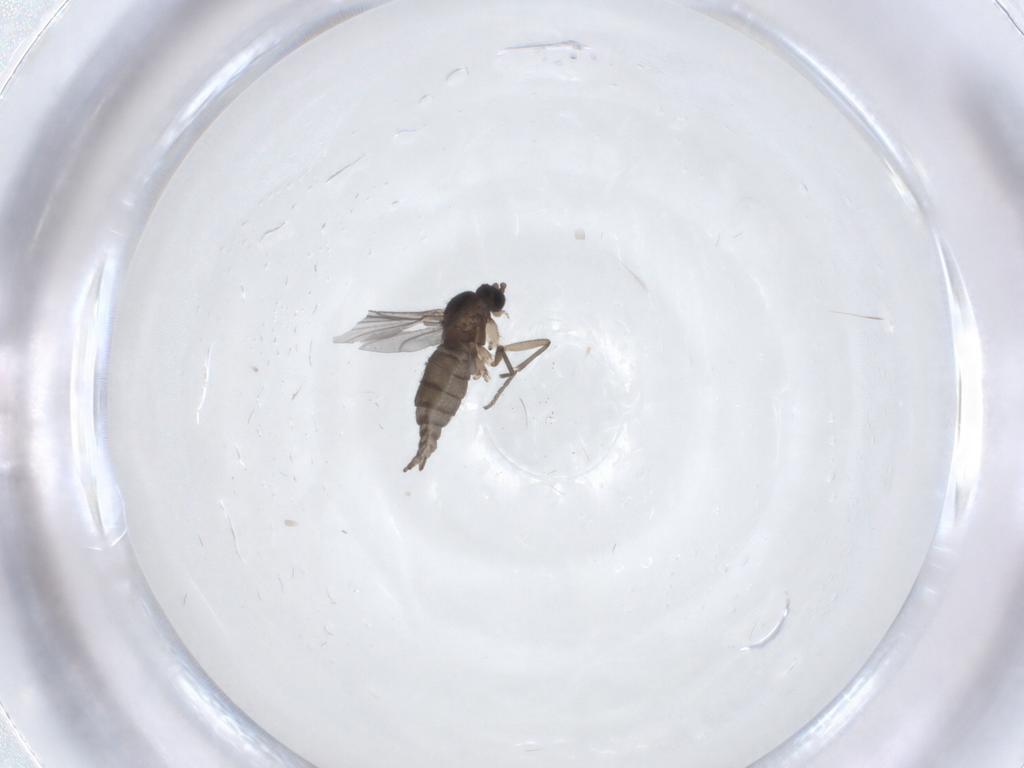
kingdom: Animalia
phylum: Arthropoda
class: Insecta
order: Diptera
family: Sciaridae
